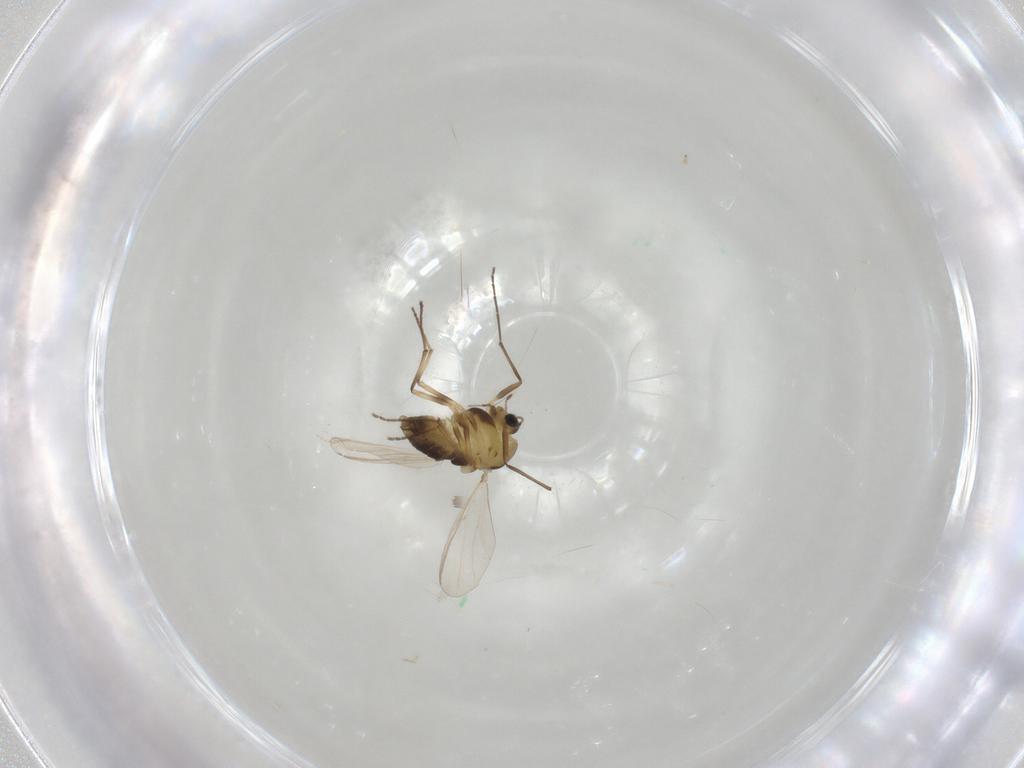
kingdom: Animalia
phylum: Arthropoda
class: Insecta
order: Diptera
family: Chironomidae
